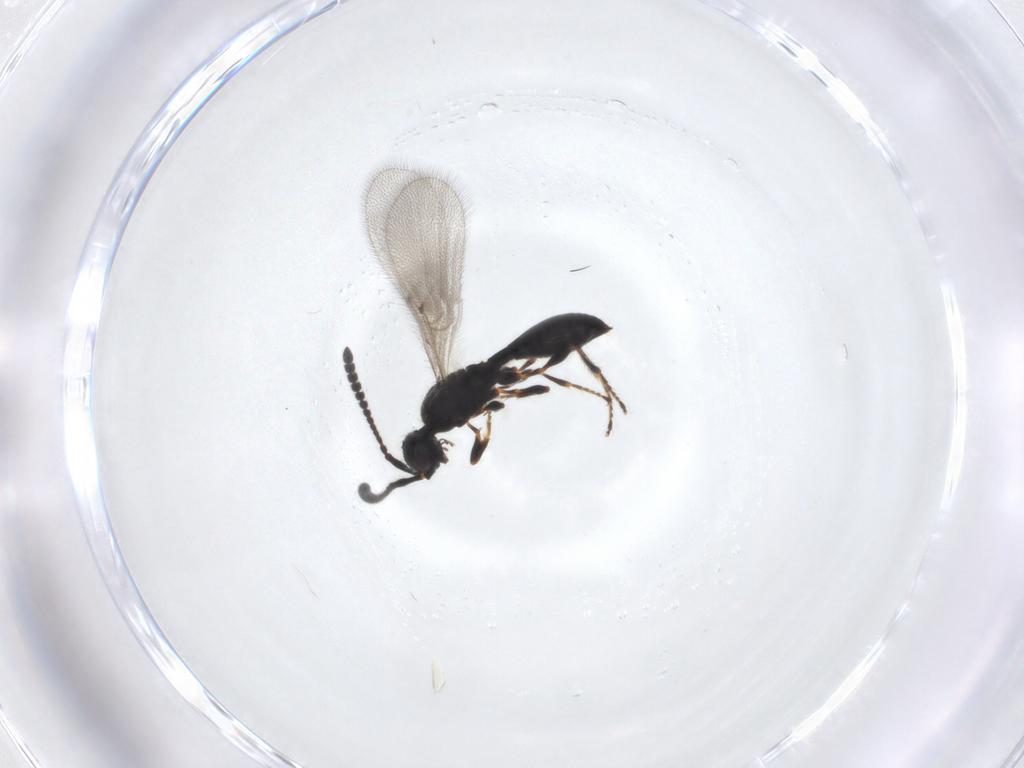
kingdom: Animalia
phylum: Arthropoda
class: Insecta
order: Hymenoptera
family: Diapriidae
